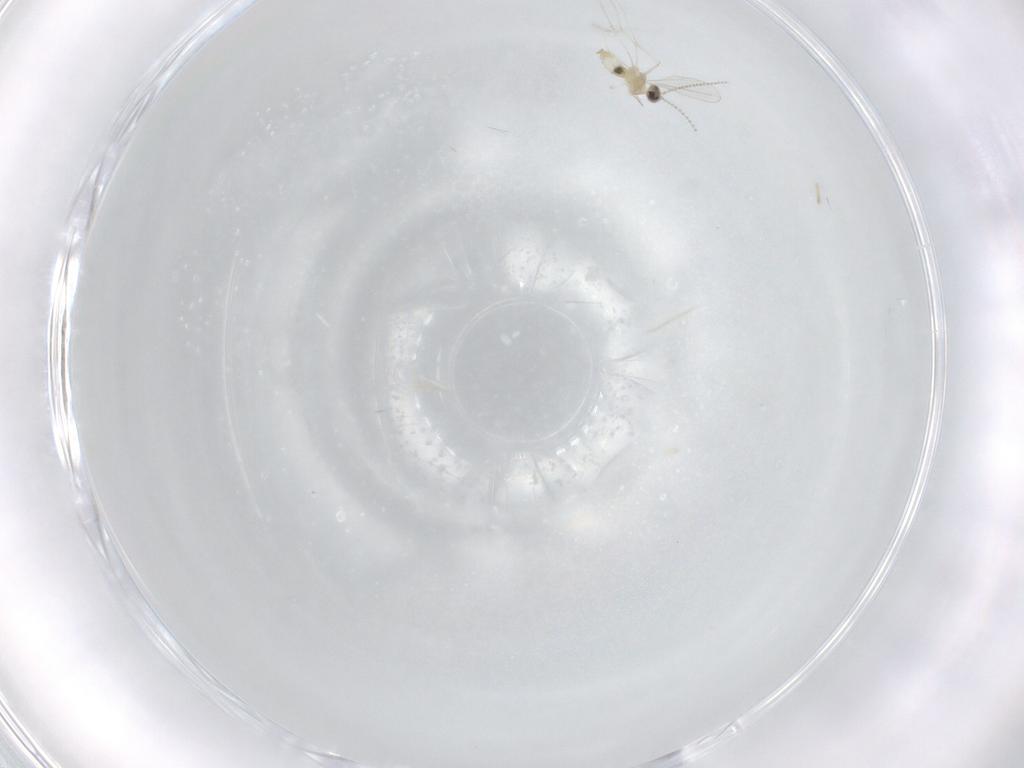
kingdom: Animalia
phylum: Arthropoda
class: Insecta
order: Diptera
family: Cecidomyiidae
